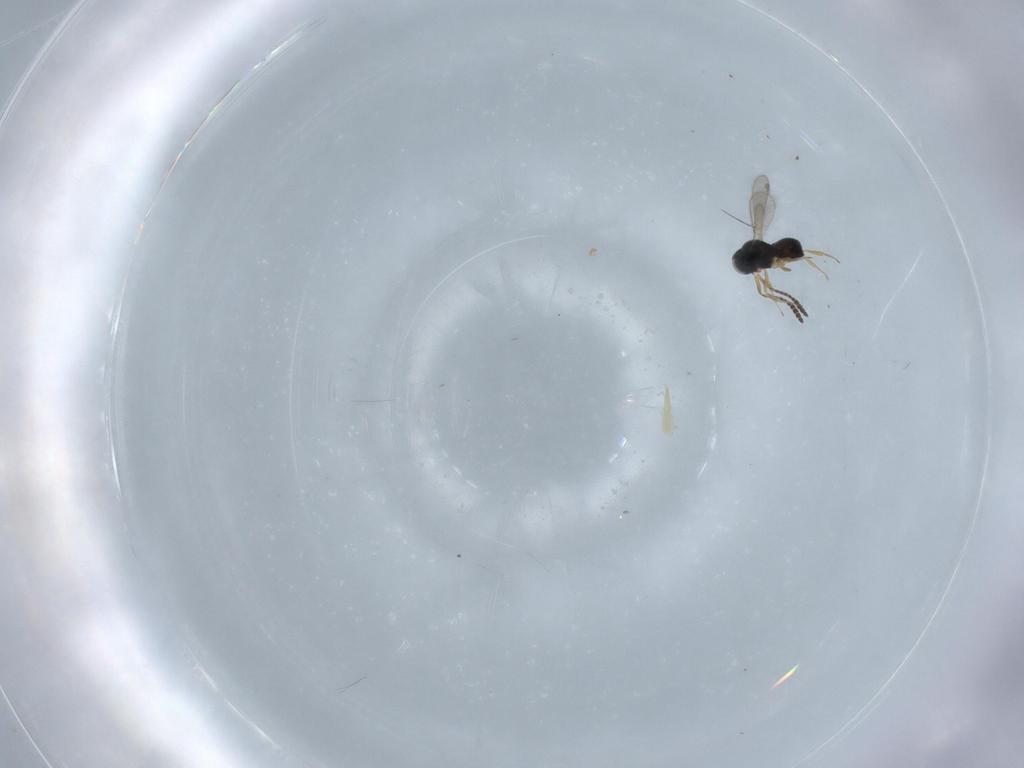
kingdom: Animalia
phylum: Arthropoda
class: Insecta
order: Hymenoptera
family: Scelionidae
